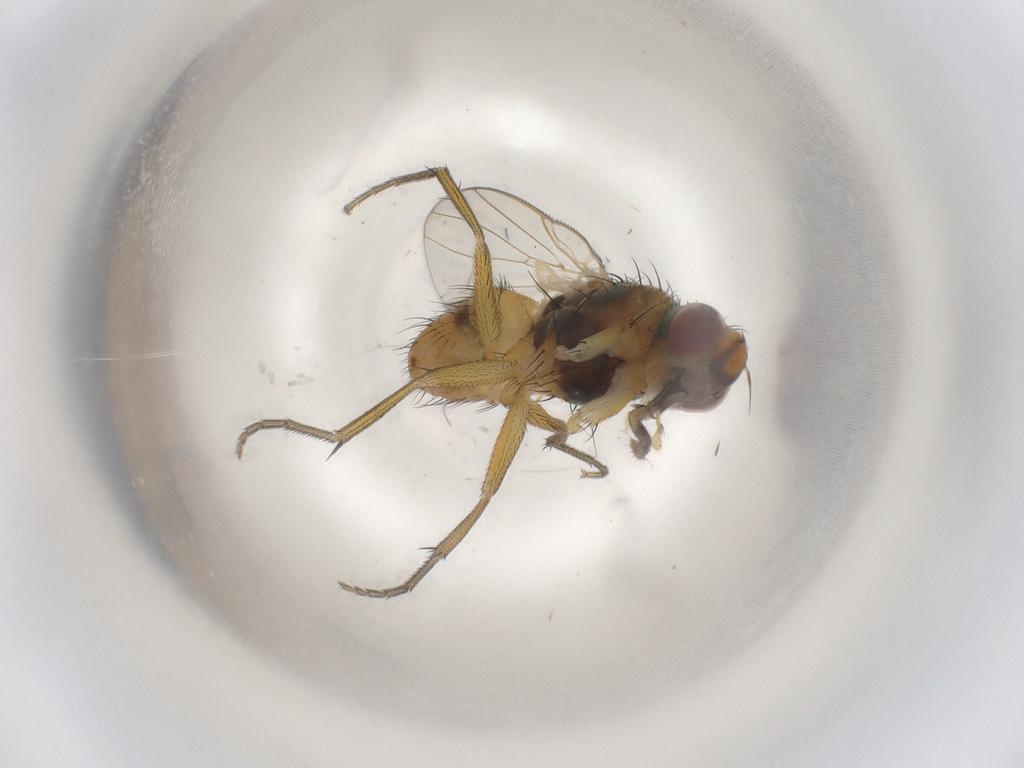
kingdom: Animalia
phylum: Arthropoda
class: Insecta
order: Diptera
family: Muscidae
